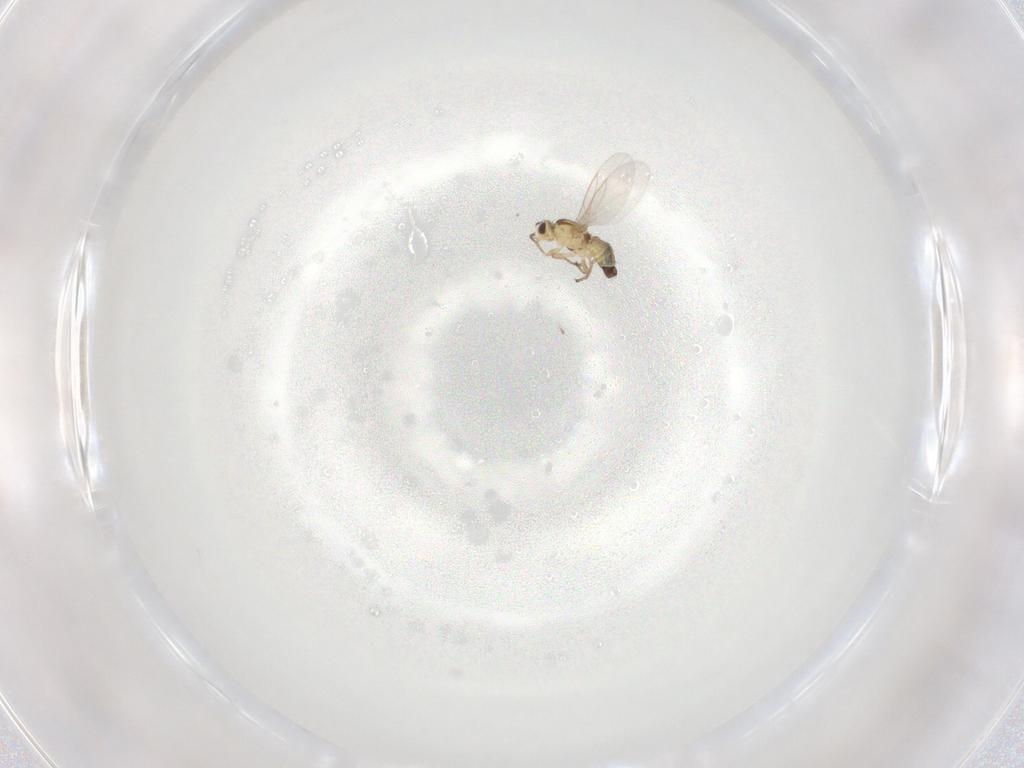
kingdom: Animalia
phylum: Arthropoda
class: Insecta
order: Diptera
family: Agromyzidae
